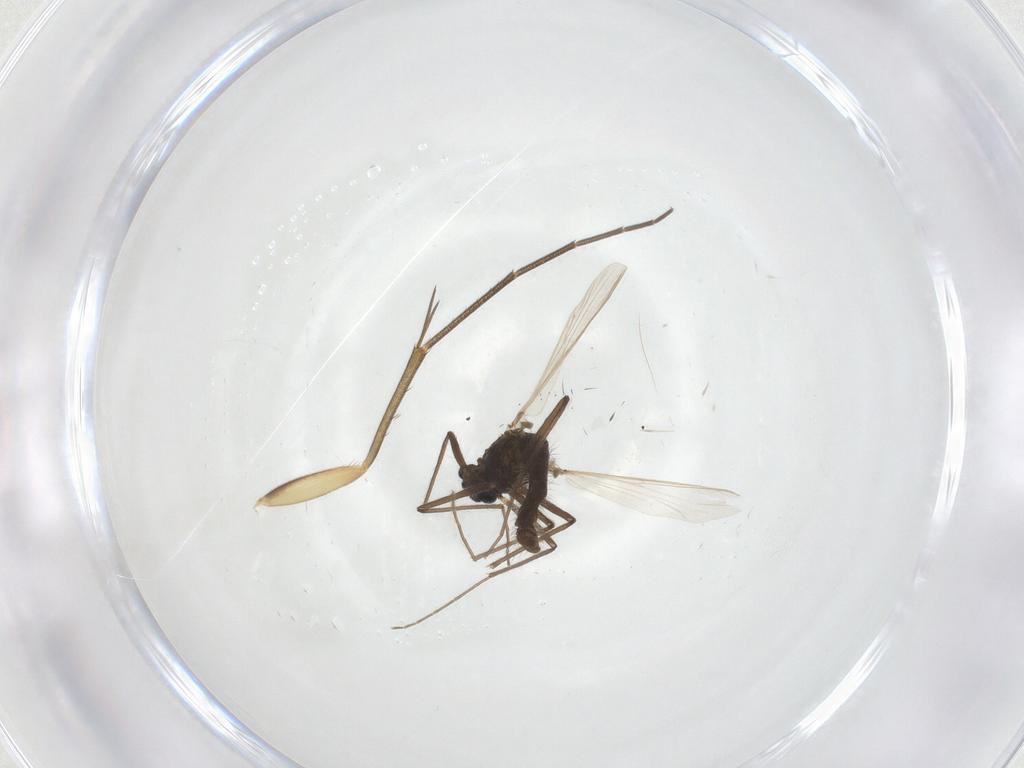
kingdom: Animalia
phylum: Arthropoda
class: Insecta
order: Diptera
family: Chironomidae
